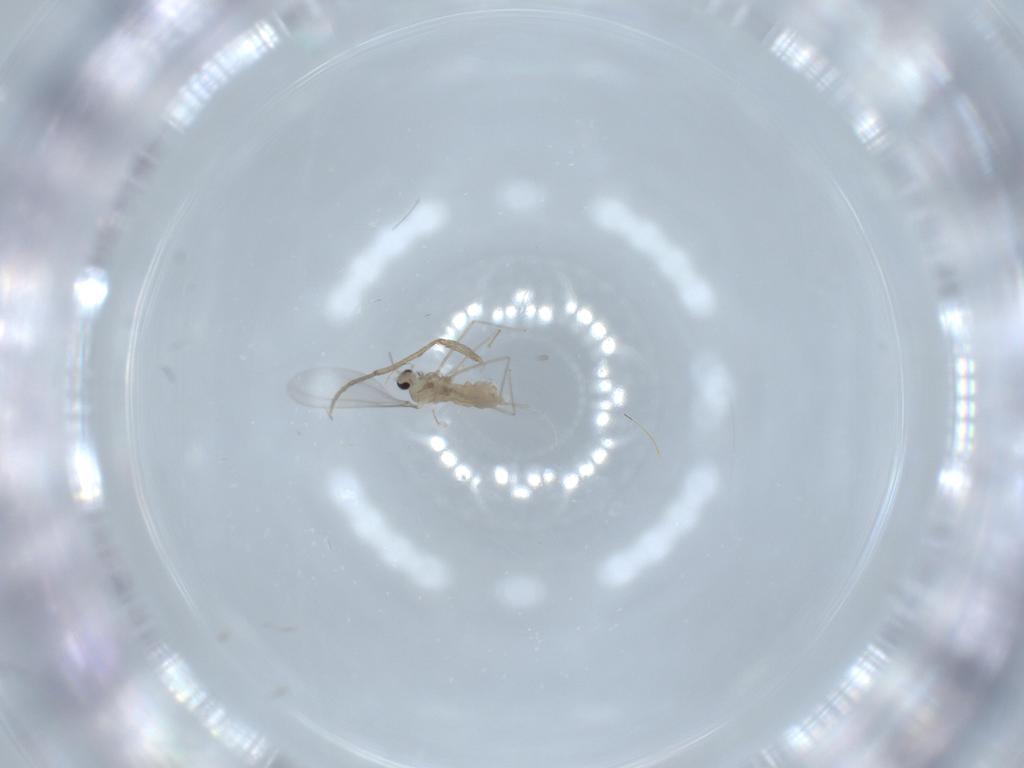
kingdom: Animalia
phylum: Arthropoda
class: Insecta
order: Diptera
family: Psychodidae
